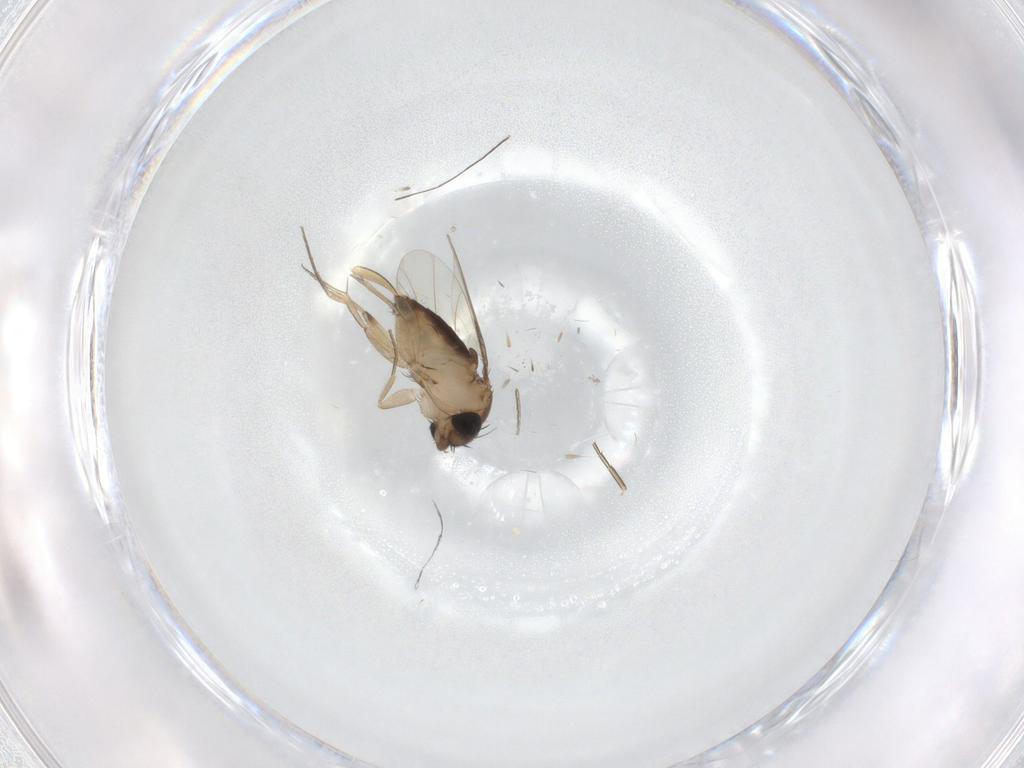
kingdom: Animalia
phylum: Arthropoda
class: Insecta
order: Diptera
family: Phoridae
